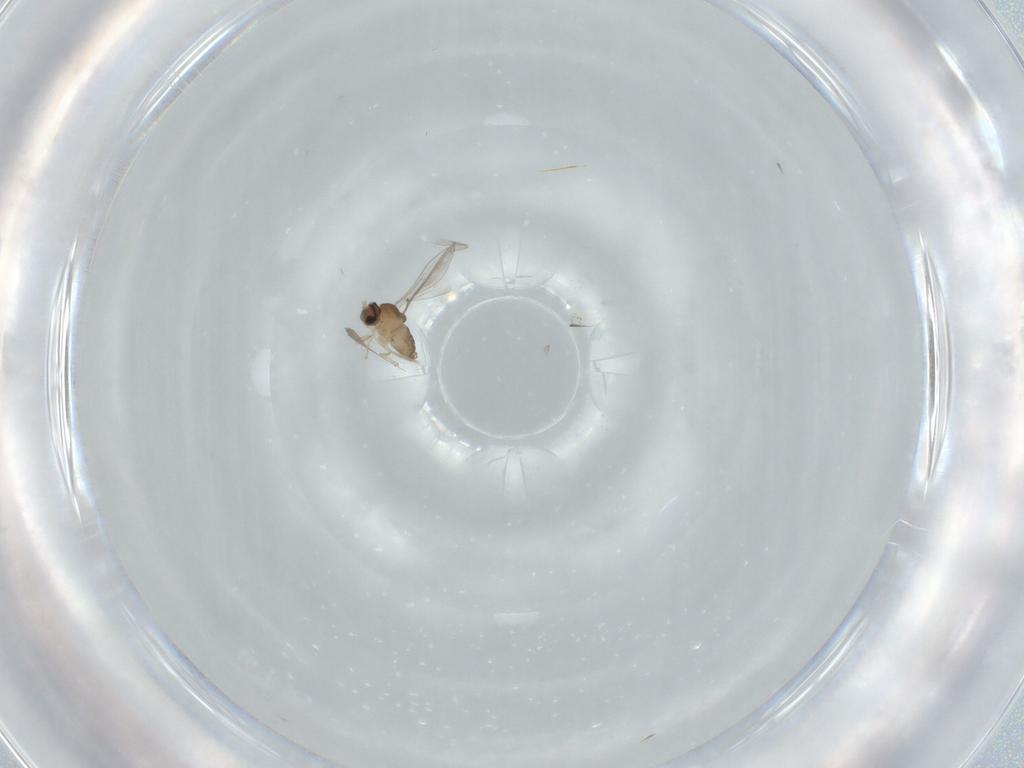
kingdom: Animalia
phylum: Arthropoda
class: Insecta
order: Diptera
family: Cecidomyiidae
